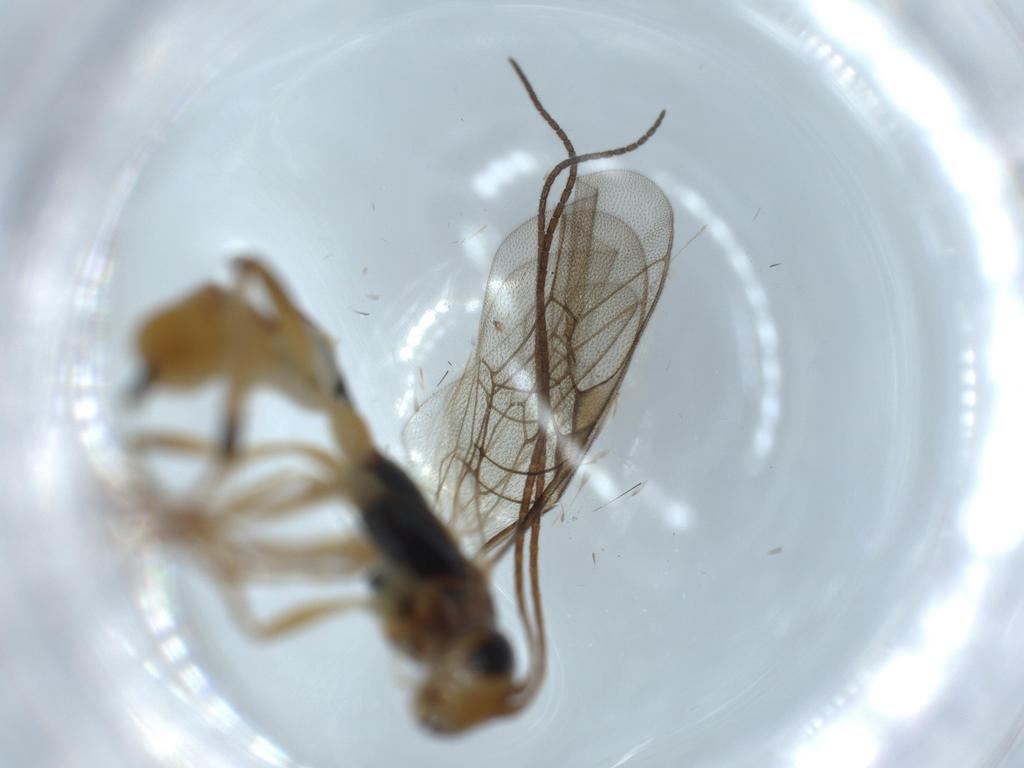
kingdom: Animalia
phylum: Arthropoda
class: Insecta
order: Hymenoptera
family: Ichneumonidae
